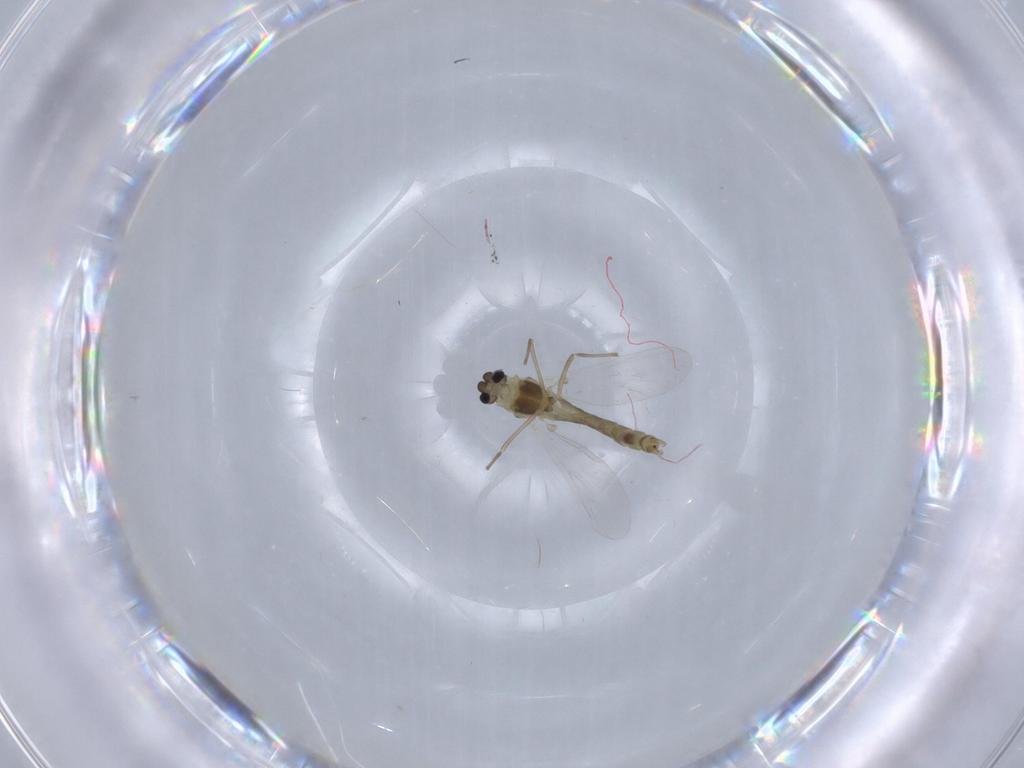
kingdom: Animalia
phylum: Arthropoda
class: Insecta
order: Diptera
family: Chironomidae
